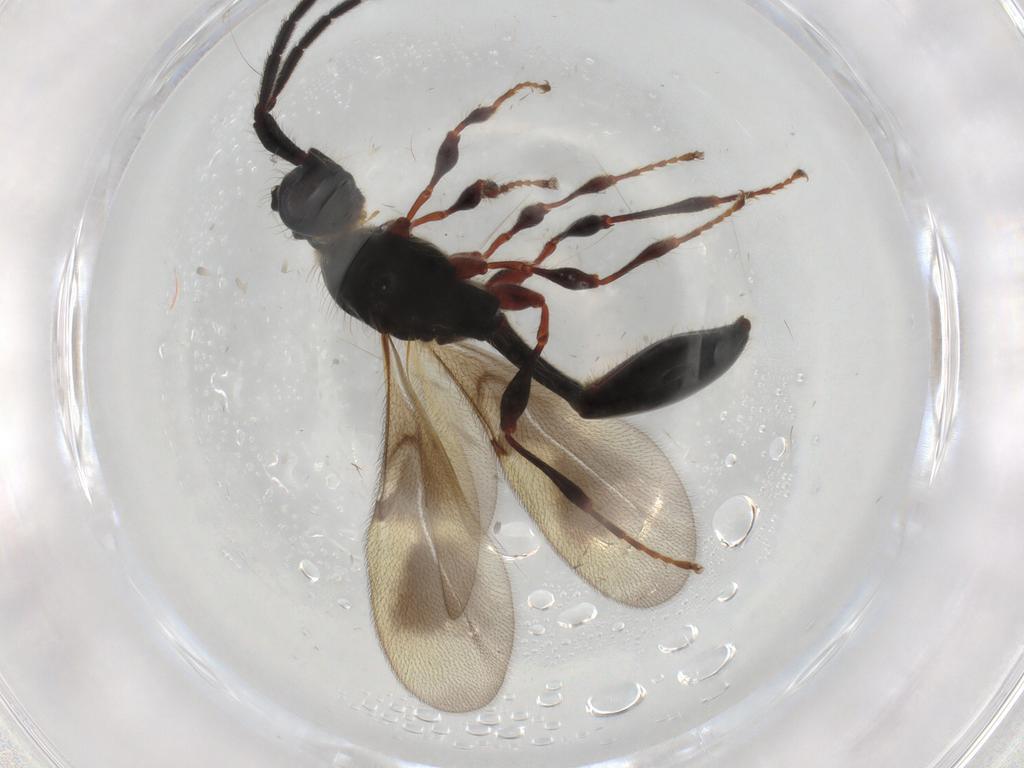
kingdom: Animalia
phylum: Arthropoda
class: Insecta
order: Hymenoptera
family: Diapriidae
